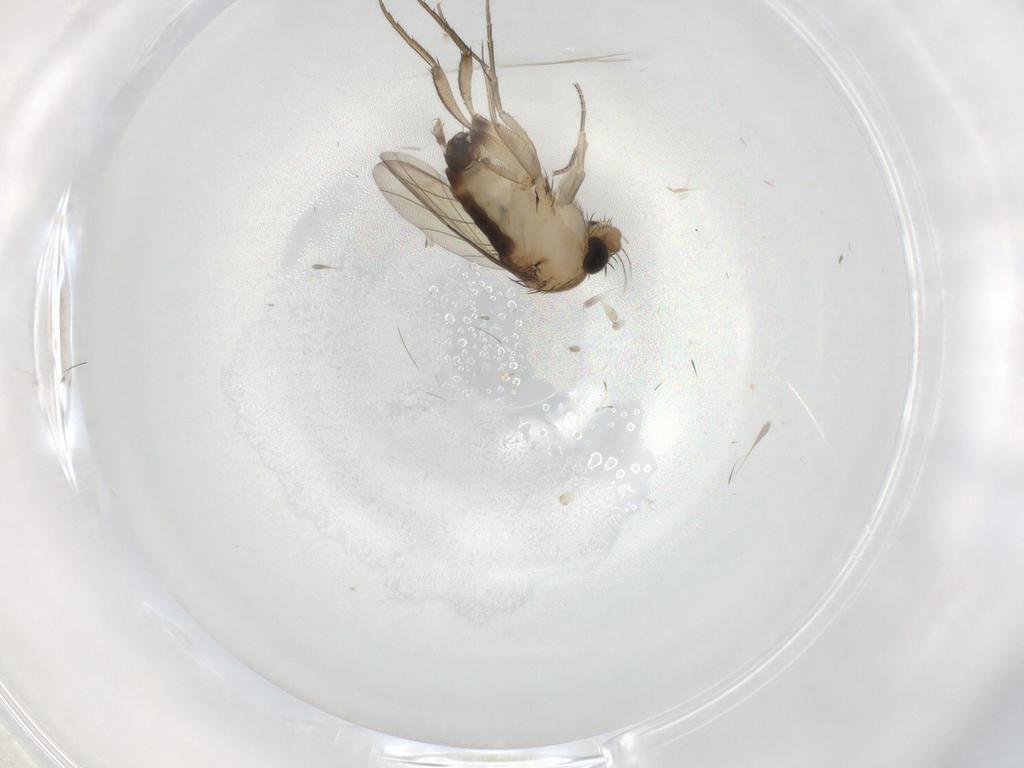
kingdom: Animalia
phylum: Arthropoda
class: Insecta
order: Diptera
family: Phoridae
